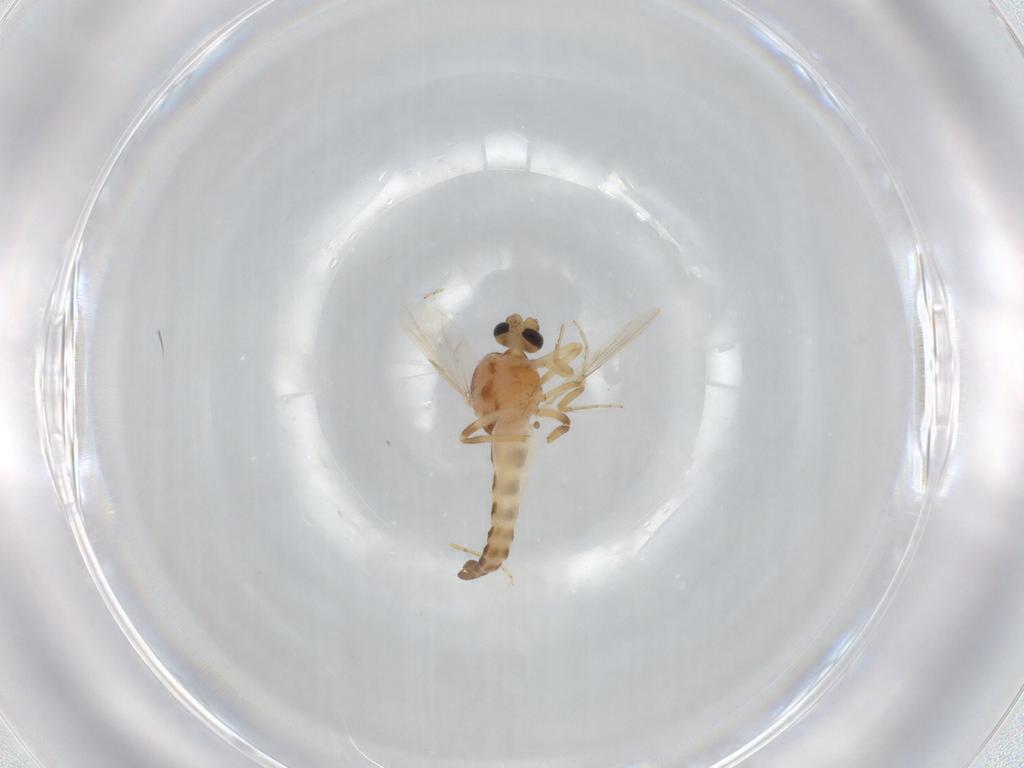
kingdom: Animalia
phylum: Arthropoda
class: Insecta
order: Diptera
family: Ceratopogonidae
